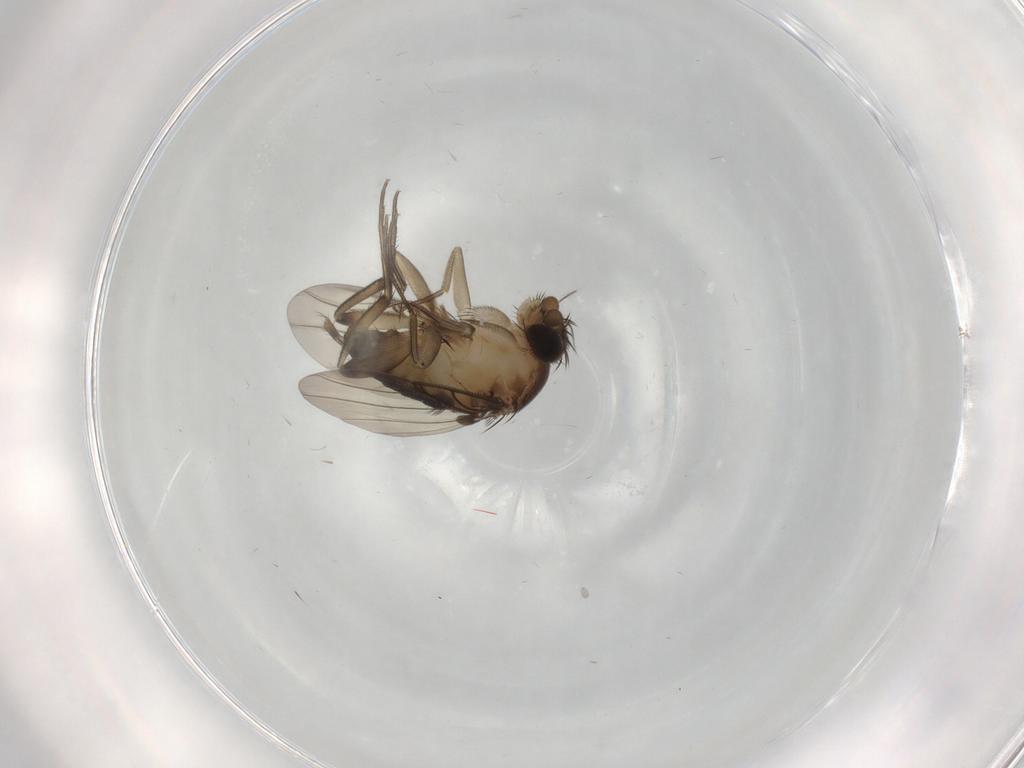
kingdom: Animalia
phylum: Arthropoda
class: Insecta
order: Diptera
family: Phoridae
